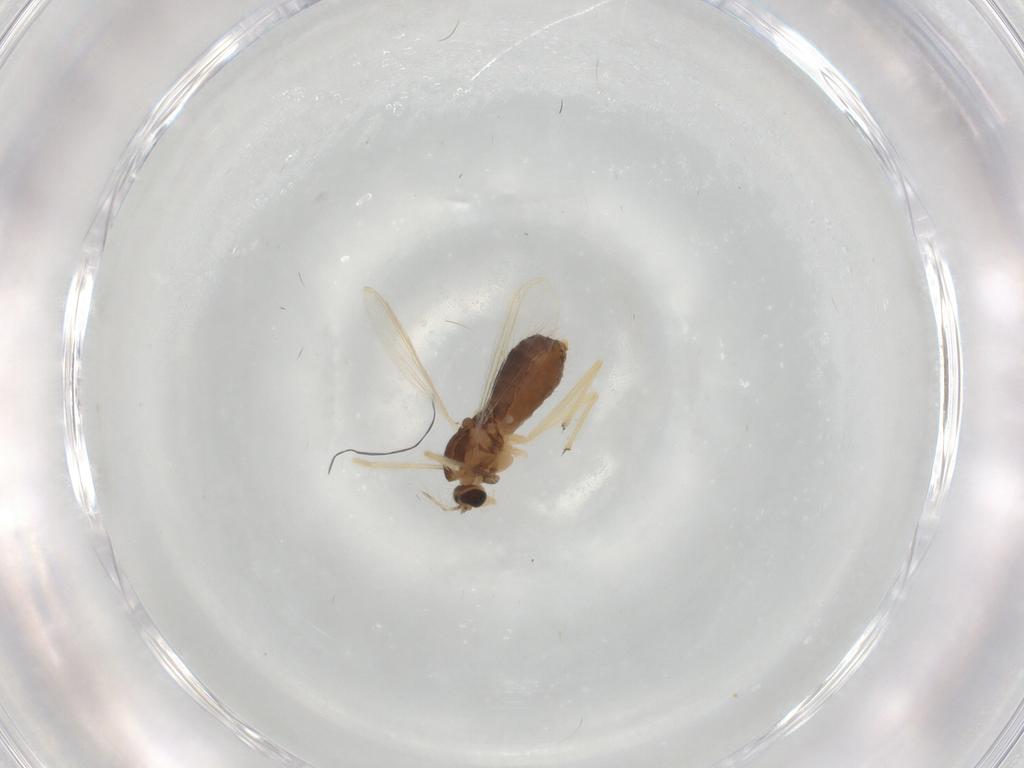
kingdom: Animalia
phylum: Arthropoda
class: Insecta
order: Diptera
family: Chironomidae
